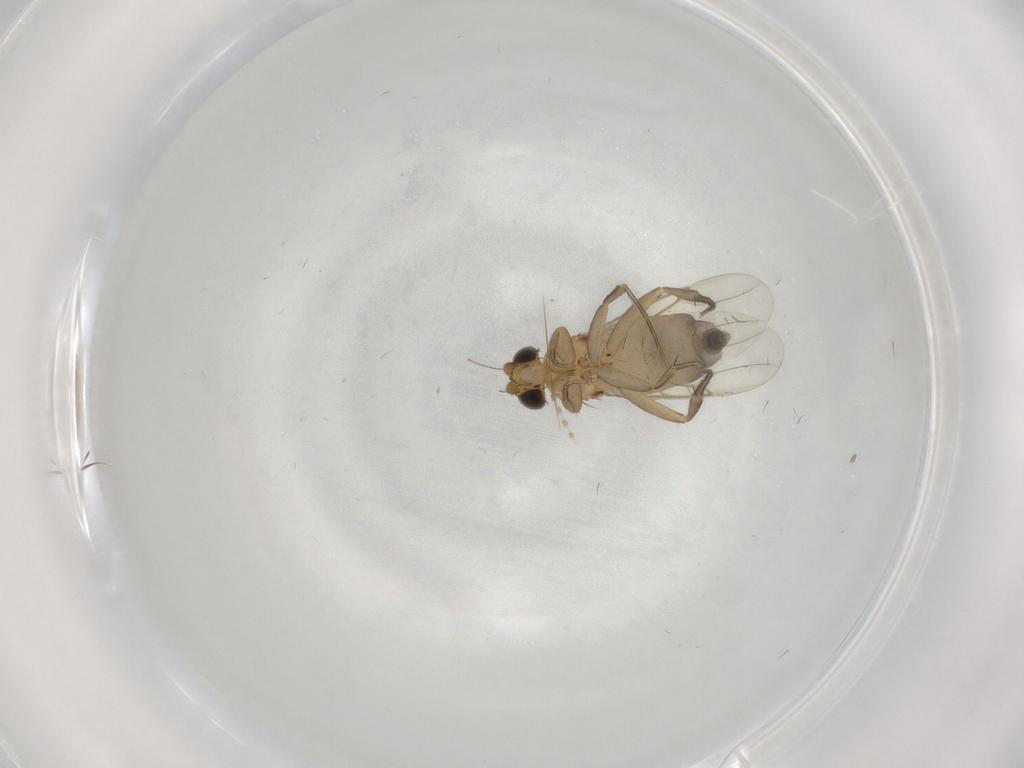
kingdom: Animalia
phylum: Arthropoda
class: Insecta
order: Diptera
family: Phoridae
